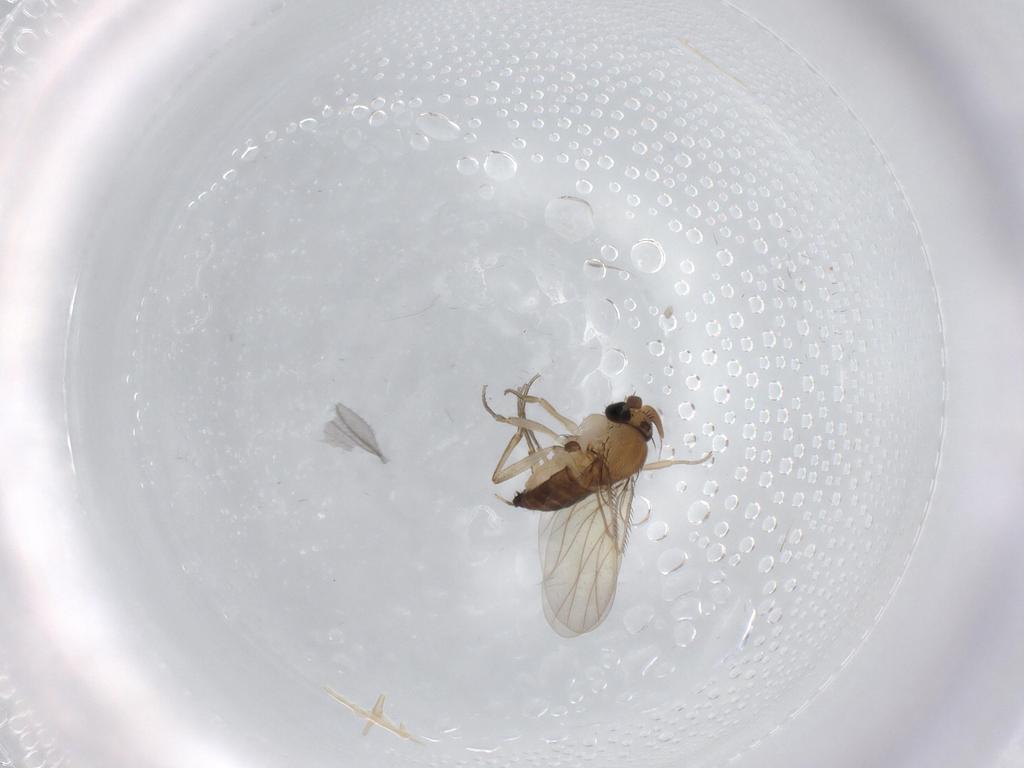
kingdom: Animalia
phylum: Arthropoda
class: Insecta
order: Diptera
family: Phoridae
